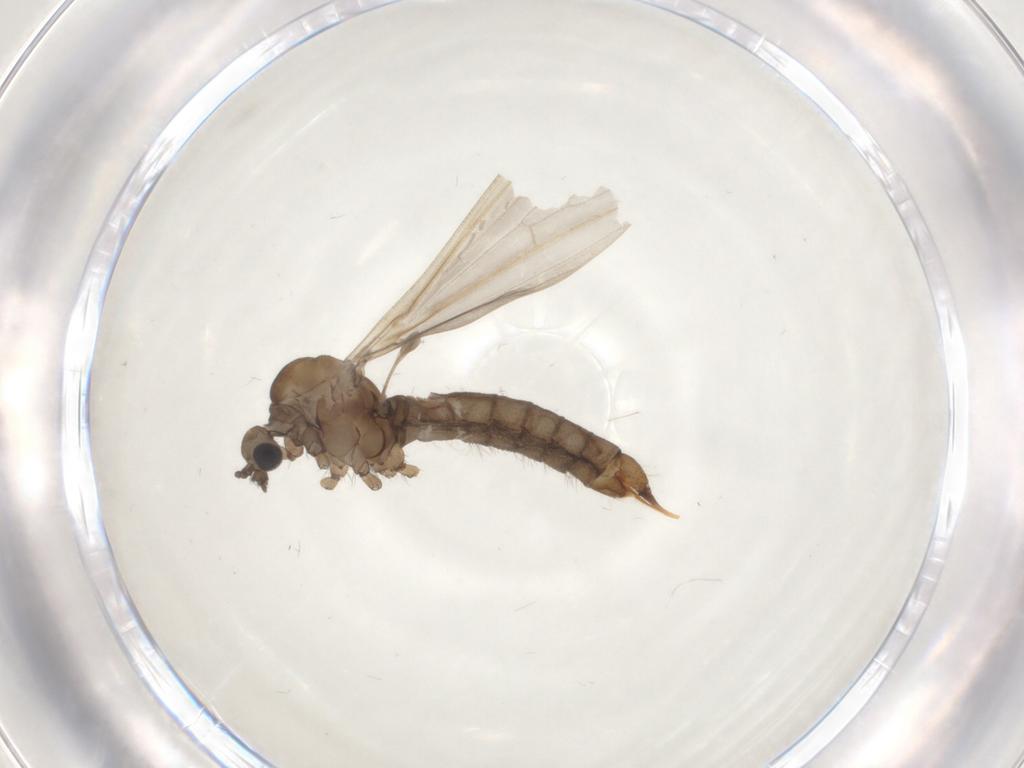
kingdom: Animalia
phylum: Arthropoda
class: Insecta
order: Diptera
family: Limoniidae
